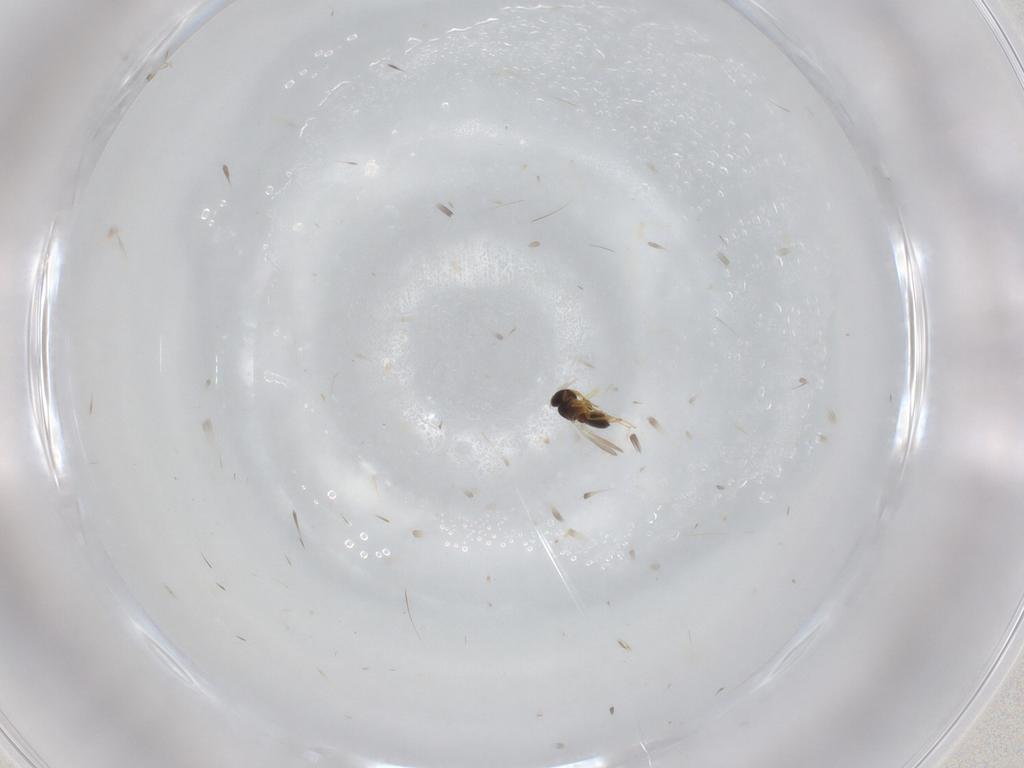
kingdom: Animalia
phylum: Arthropoda
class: Insecta
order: Hymenoptera
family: Platygastridae
